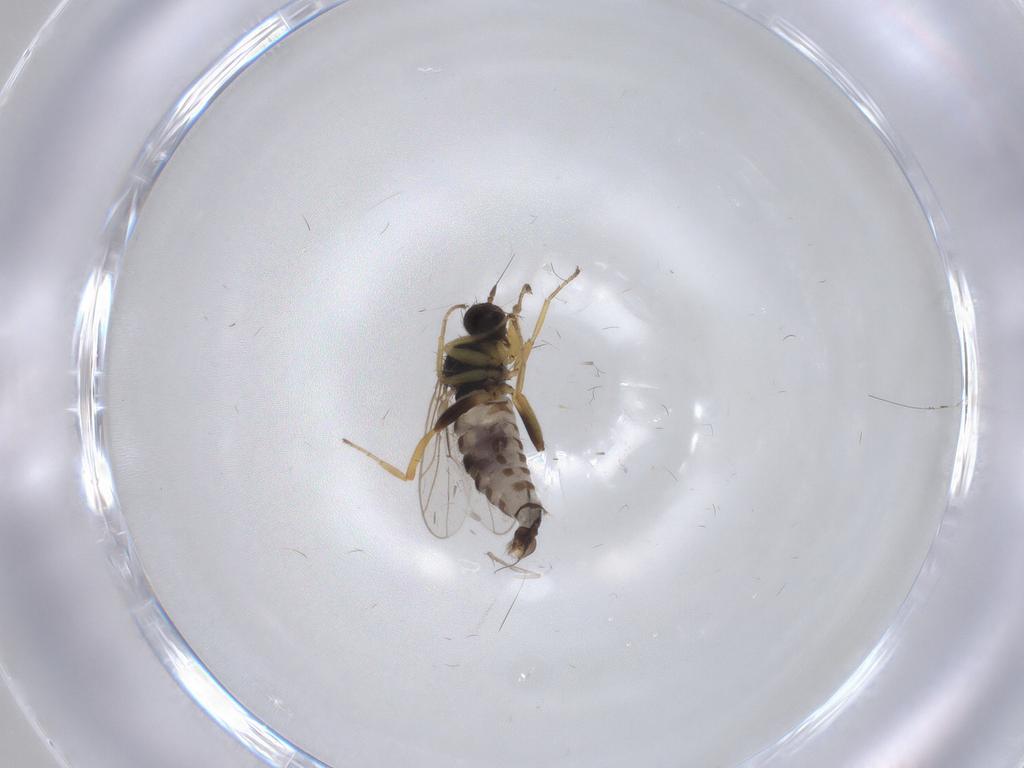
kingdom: Animalia
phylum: Arthropoda
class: Insecta
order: Diptera
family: Hybotidae
